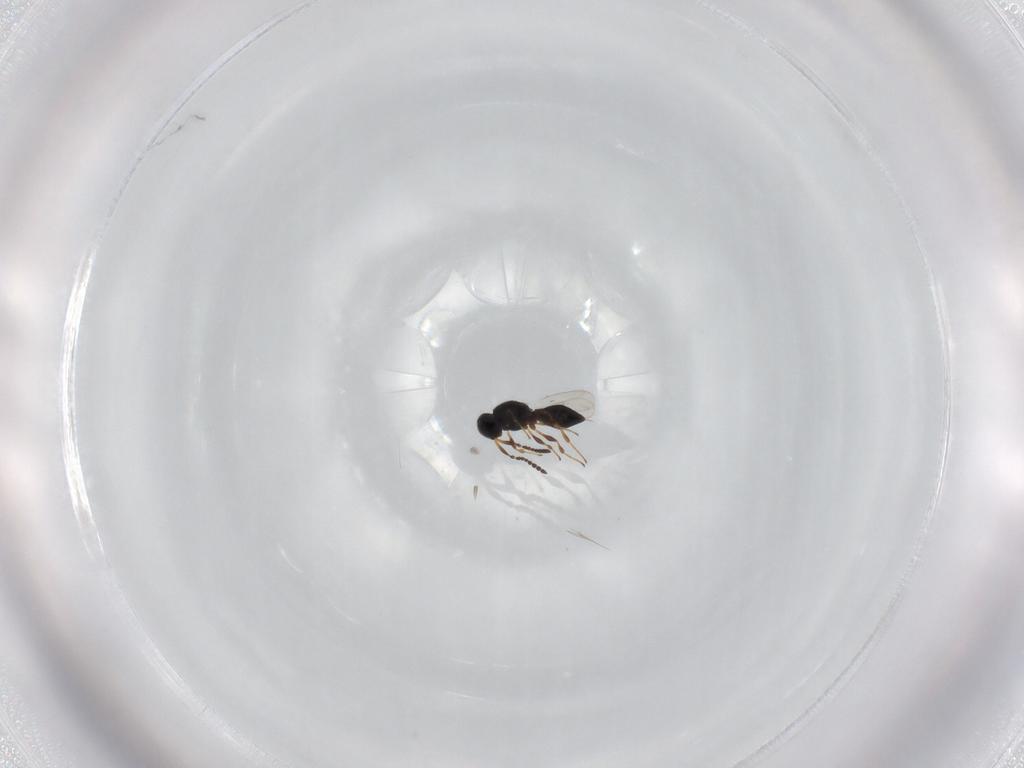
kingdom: Animalia
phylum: Arthropoda
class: Insecta
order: Hymenoptera
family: Platygastridae
